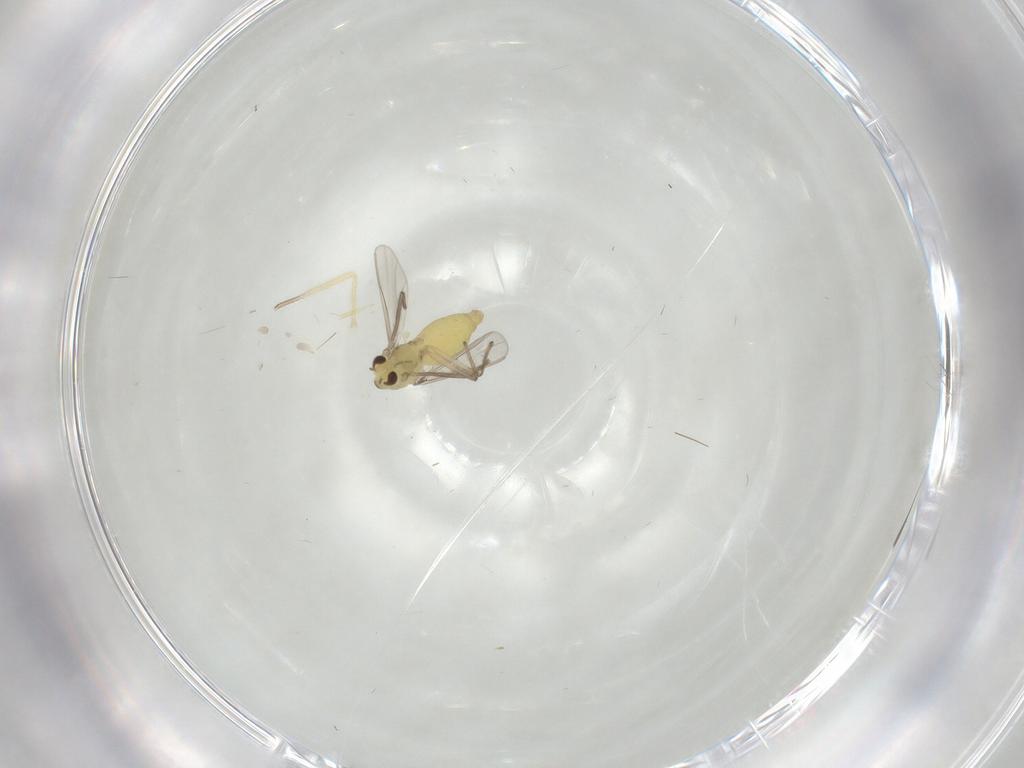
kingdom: Animalia
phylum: Arthropoda
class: Insecta
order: Diptera
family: Chironomidae
